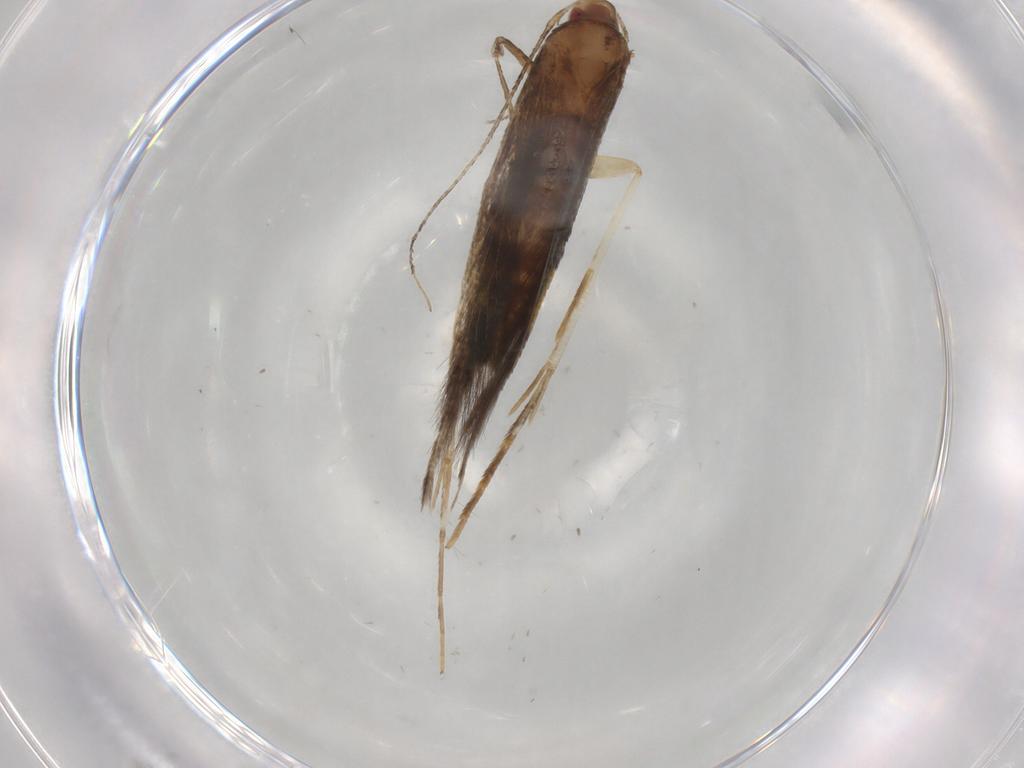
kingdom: Animalia
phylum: Arthropoda
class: Insecta
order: Lepidoptera
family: Cosmopterigidae
